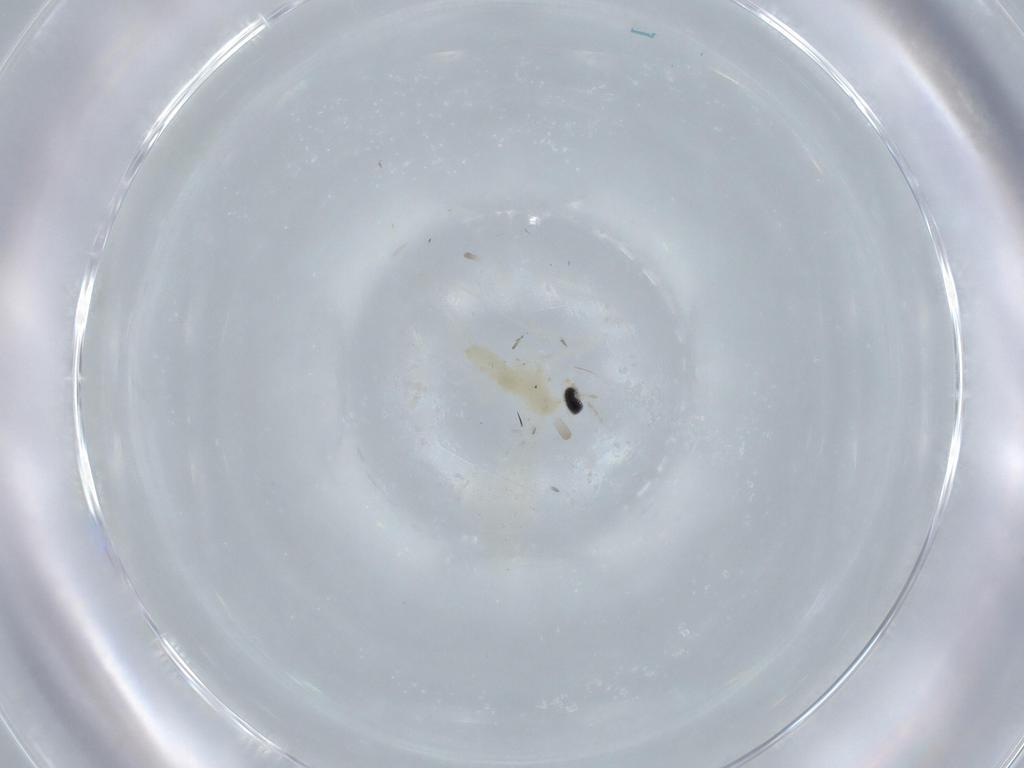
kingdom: Animalia
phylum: Arthropoda
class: Insecta
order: Diptera
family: Cecidomyiidae
